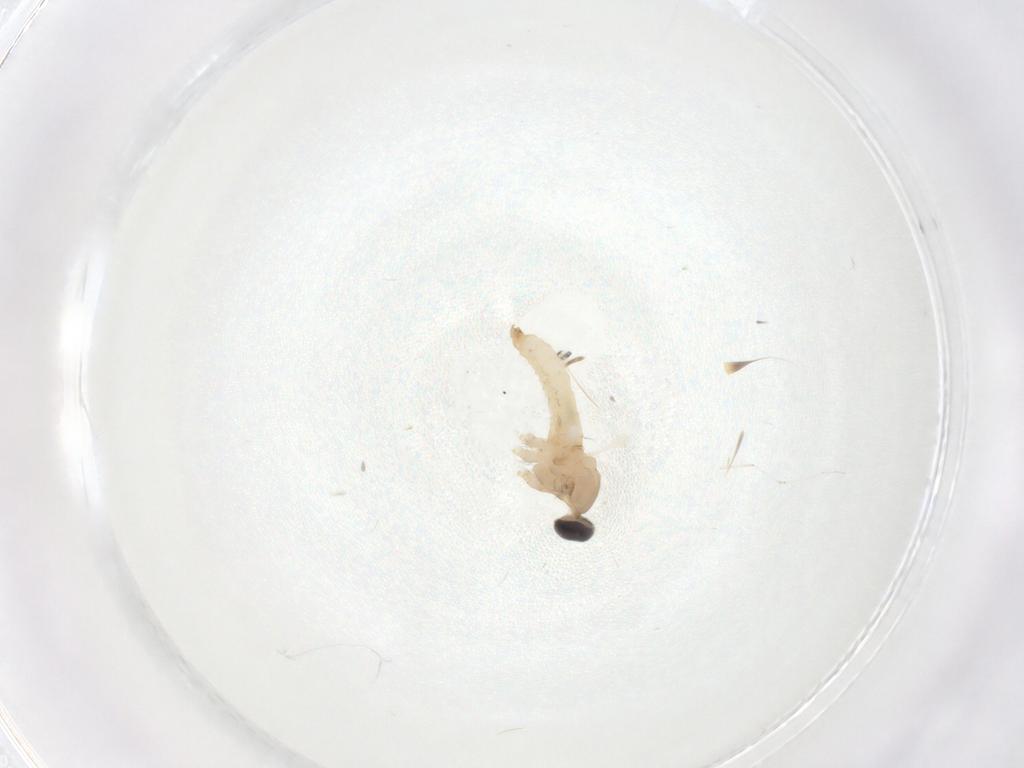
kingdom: Animalia
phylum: Arthropoda
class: Insecta
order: Diptera
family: Cecidomyiidae
